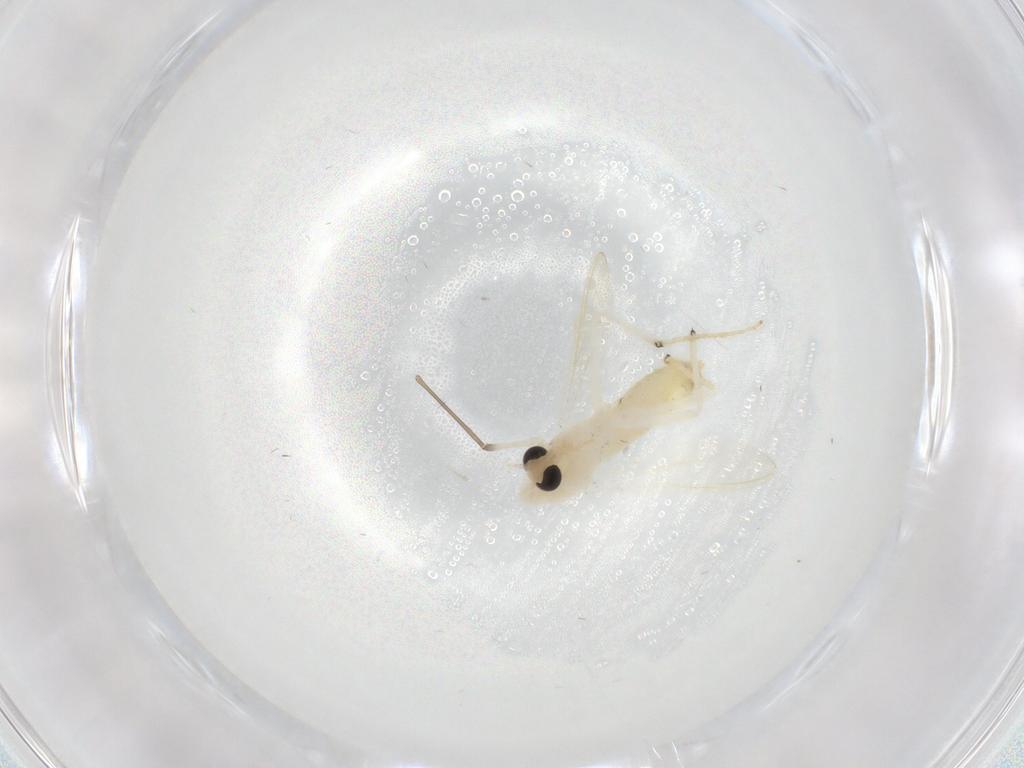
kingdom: Animalia
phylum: Arthropoda
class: Insecta
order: Diptera
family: Chironomidae
